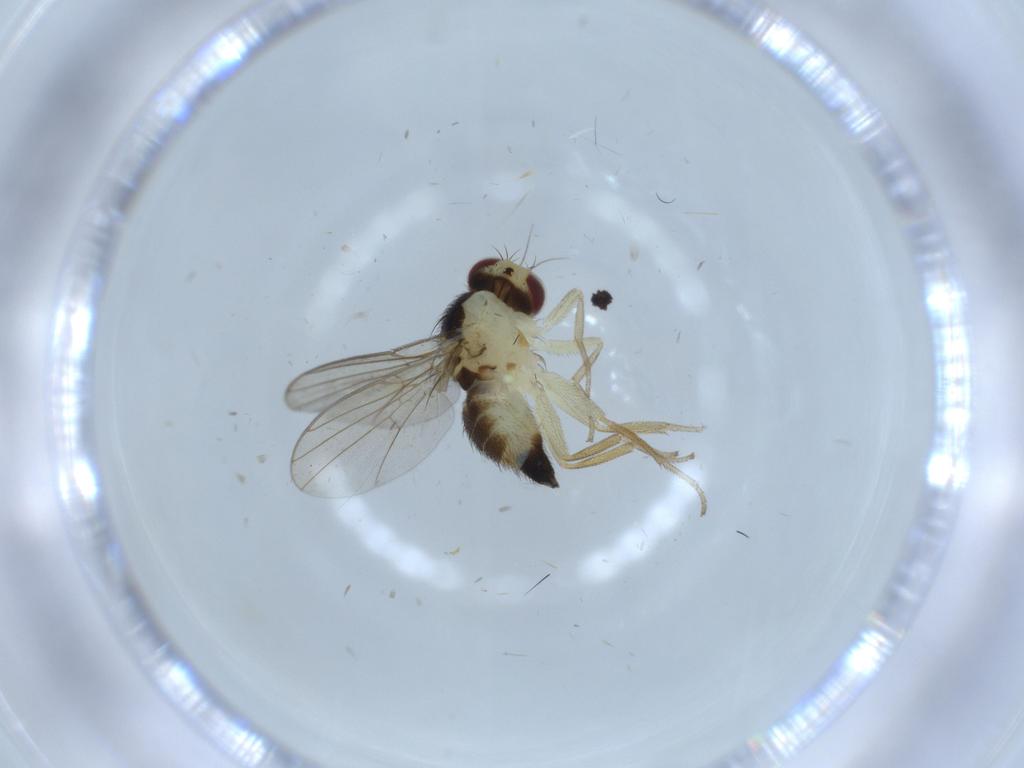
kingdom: Animalia
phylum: Arthropoda
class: Insecta
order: Diptera
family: Agromyzidae
